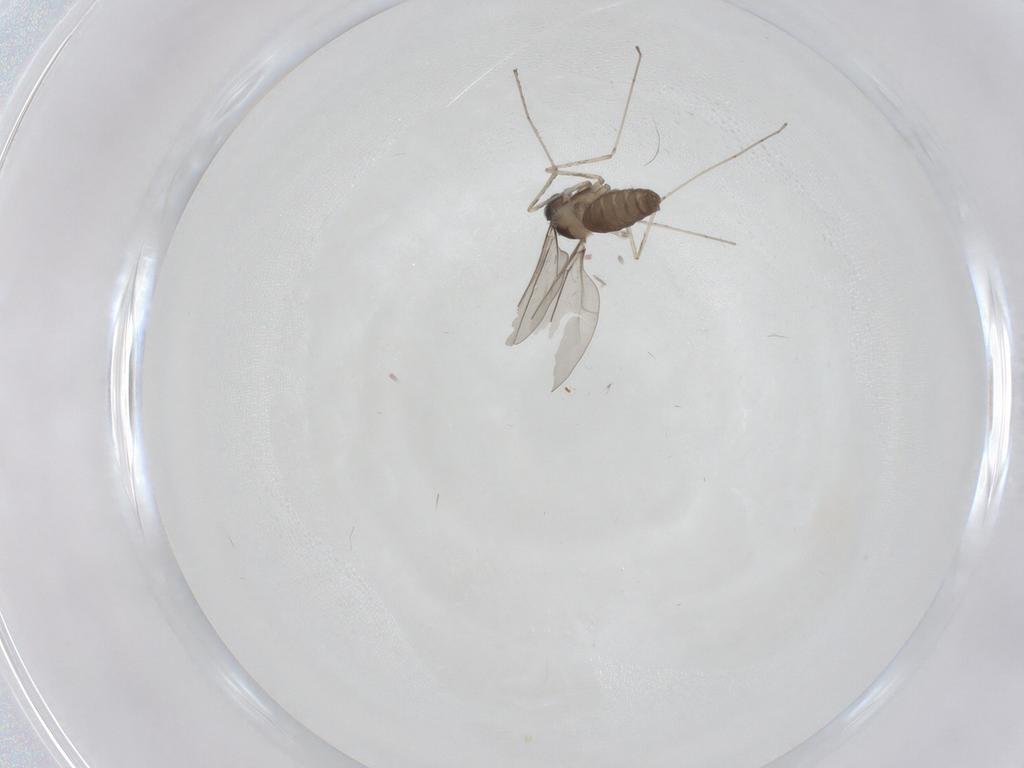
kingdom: Animalia
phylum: Arthropoda
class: Insecta
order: Diptera
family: Cecidomyiidae
